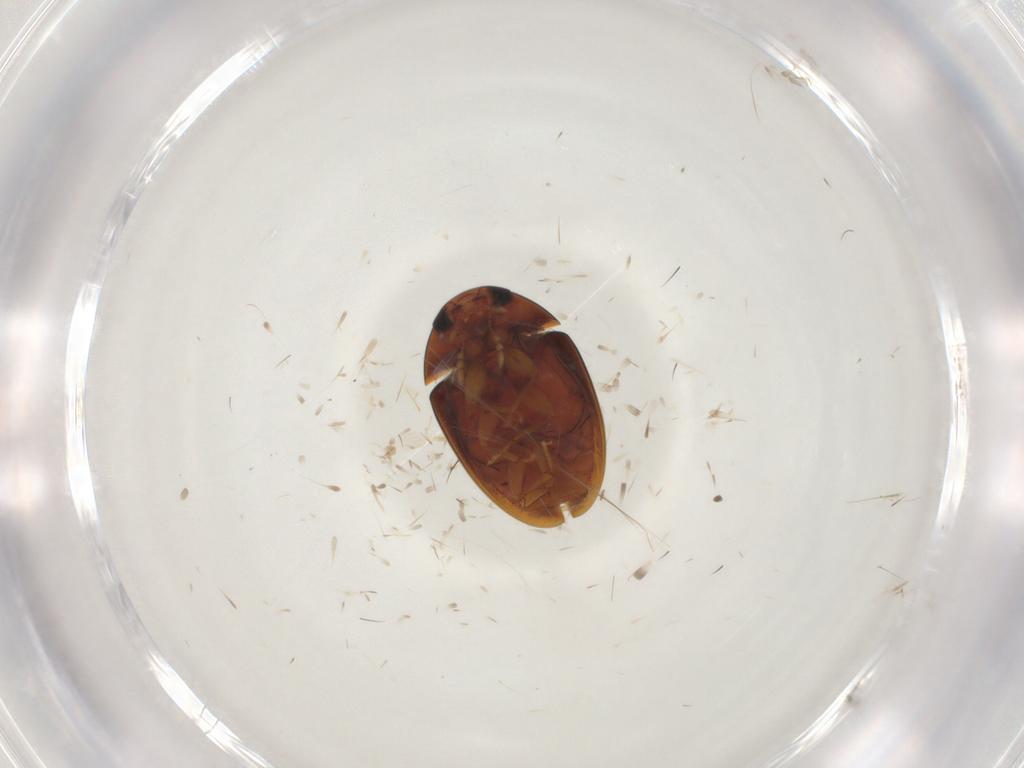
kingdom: Animalia
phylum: Arthropoda
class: Insecta
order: Coleoptera
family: Phalacridae
